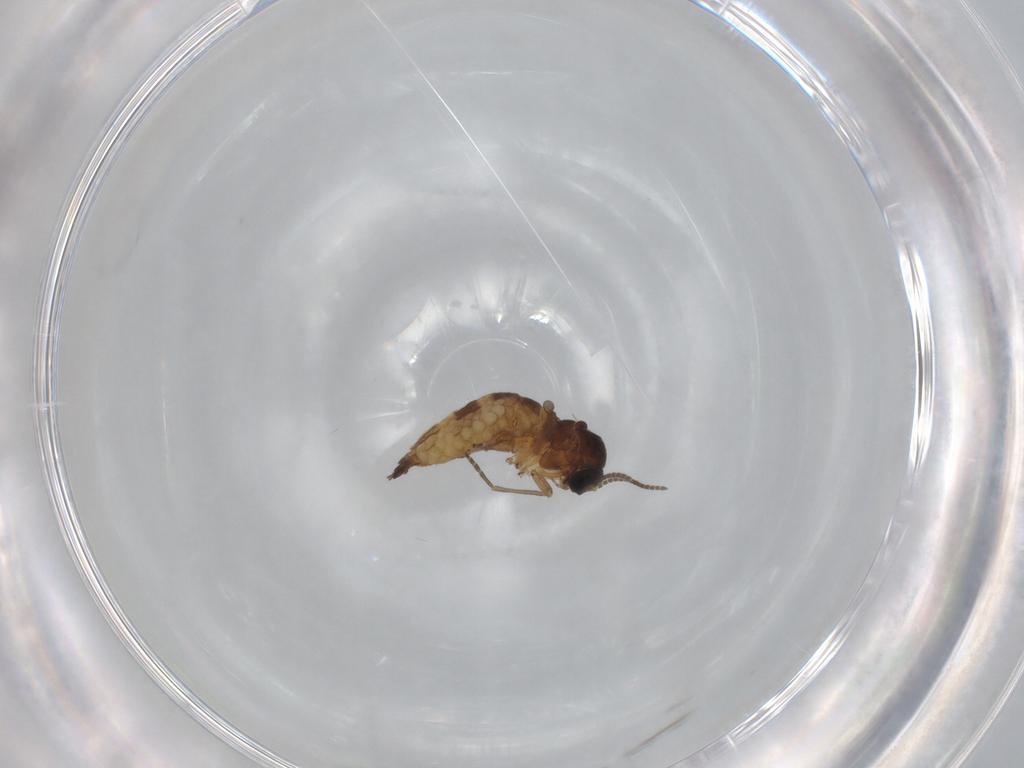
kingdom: Animalia
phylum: Arthropoda
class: Insecta
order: Diptera
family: Sciaridae
